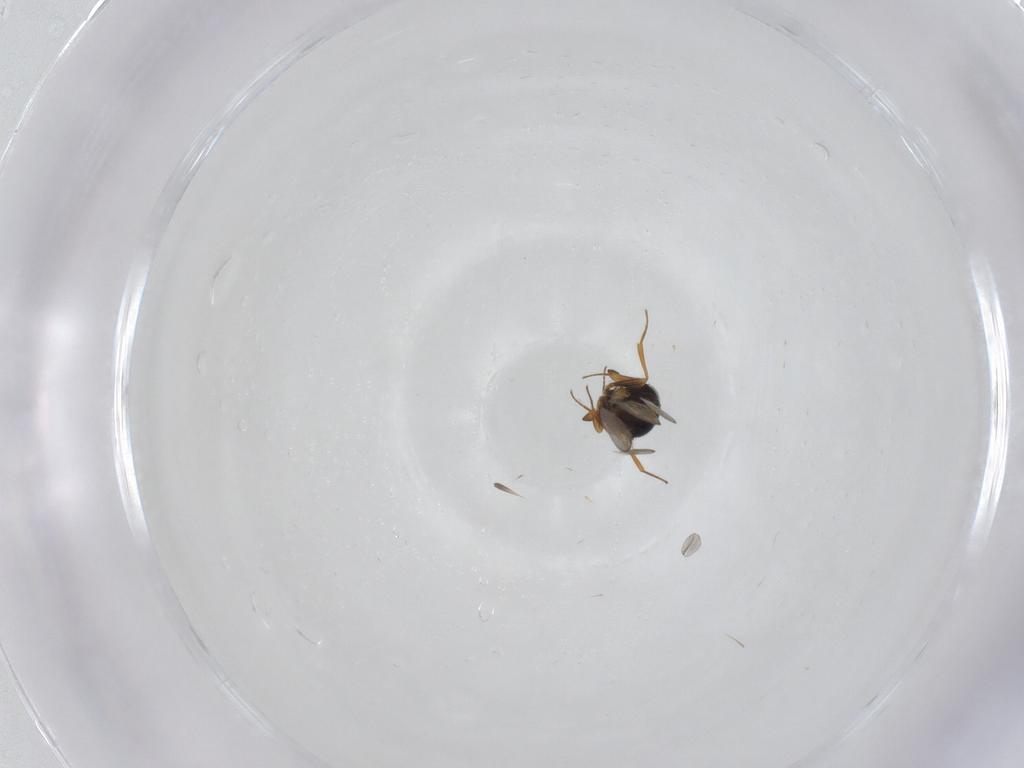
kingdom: Animalia
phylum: Arthropoda
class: Insecta
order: Hymenoptera
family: Scelionidae
